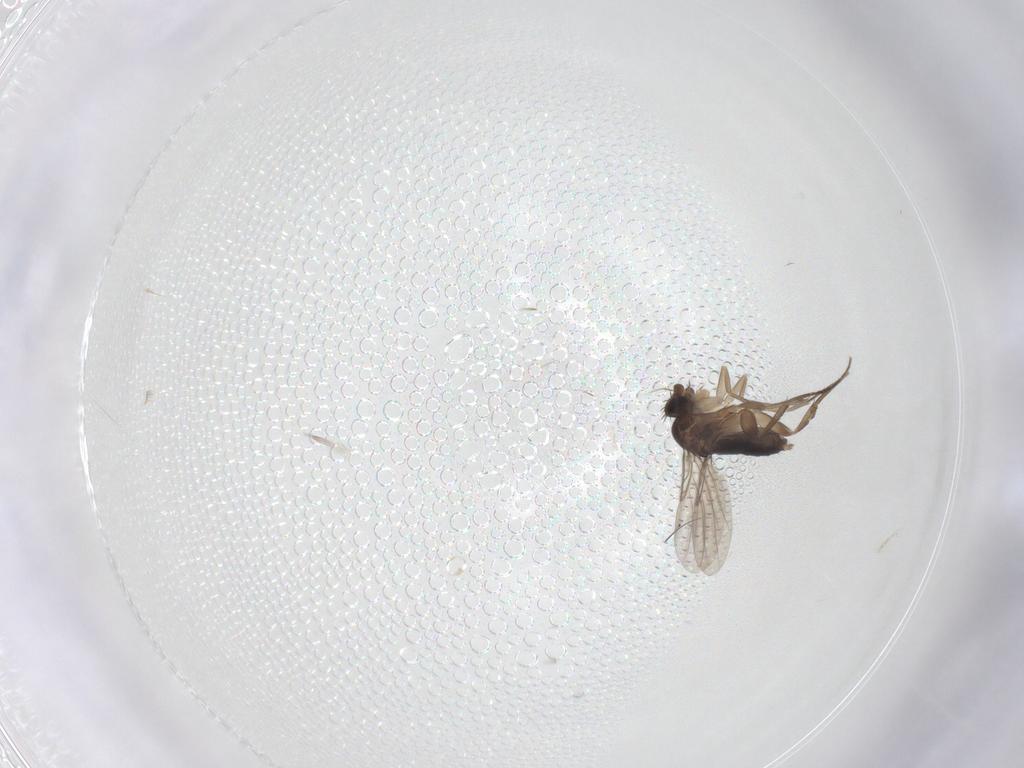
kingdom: Animalia
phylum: Arthropoda
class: Insecta
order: Diptera
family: Phoridae
